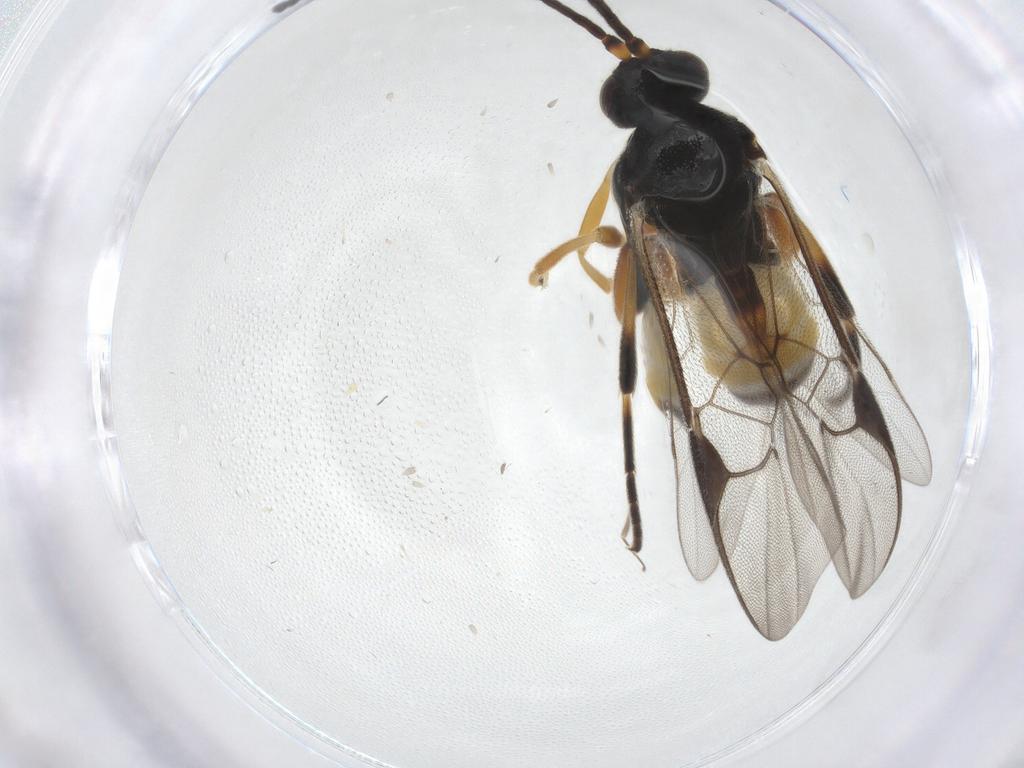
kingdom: Animalia
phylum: Arthropoda
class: Insecta
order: Hymenoptera
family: Braconidae
